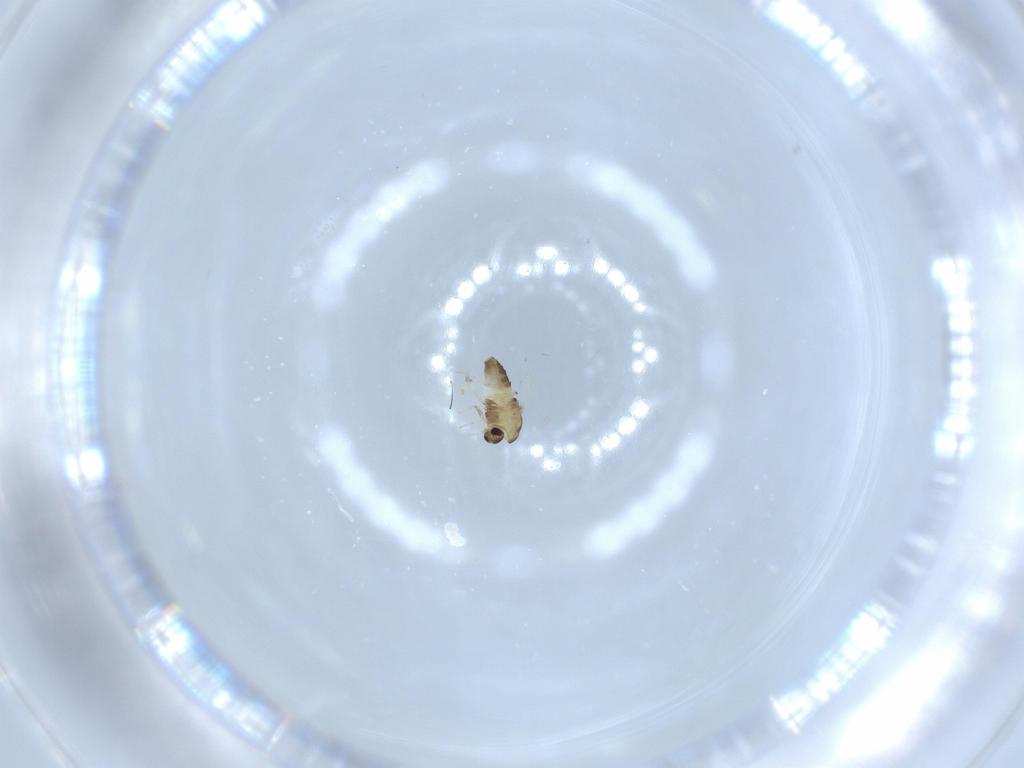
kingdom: Animalia
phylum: Arthropoda
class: Insecta
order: Diptera
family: Chironomidae
